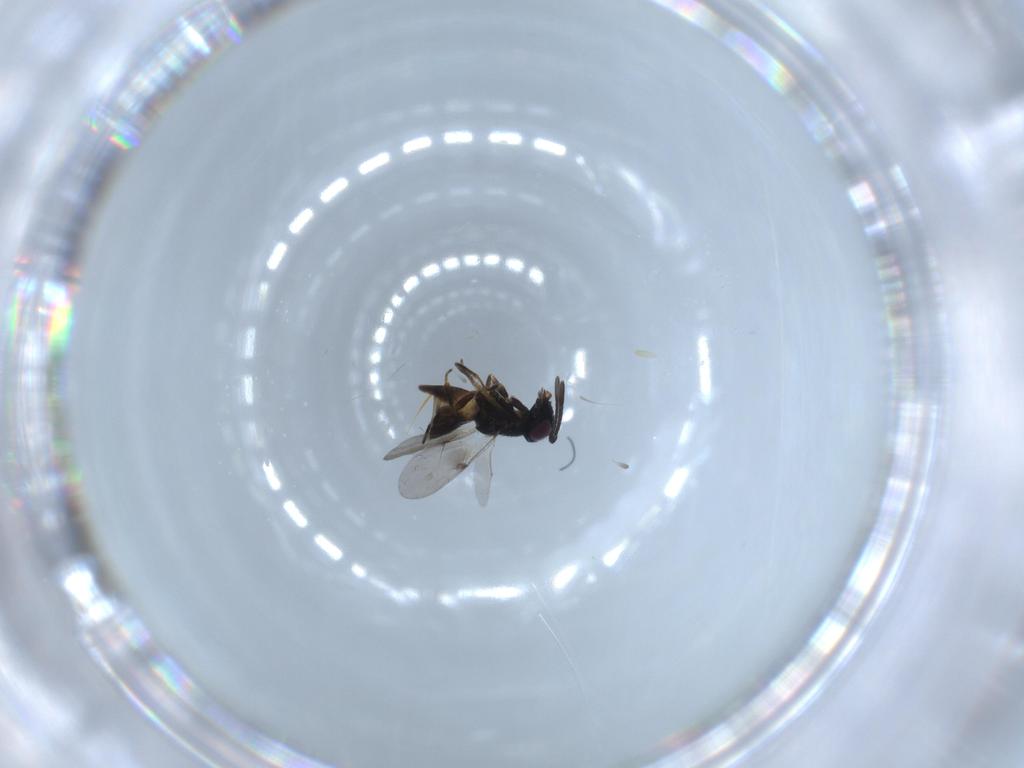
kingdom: Animalia
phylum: Arthropoda
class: Insecta
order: Hymenoptera
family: Encyrtidae
